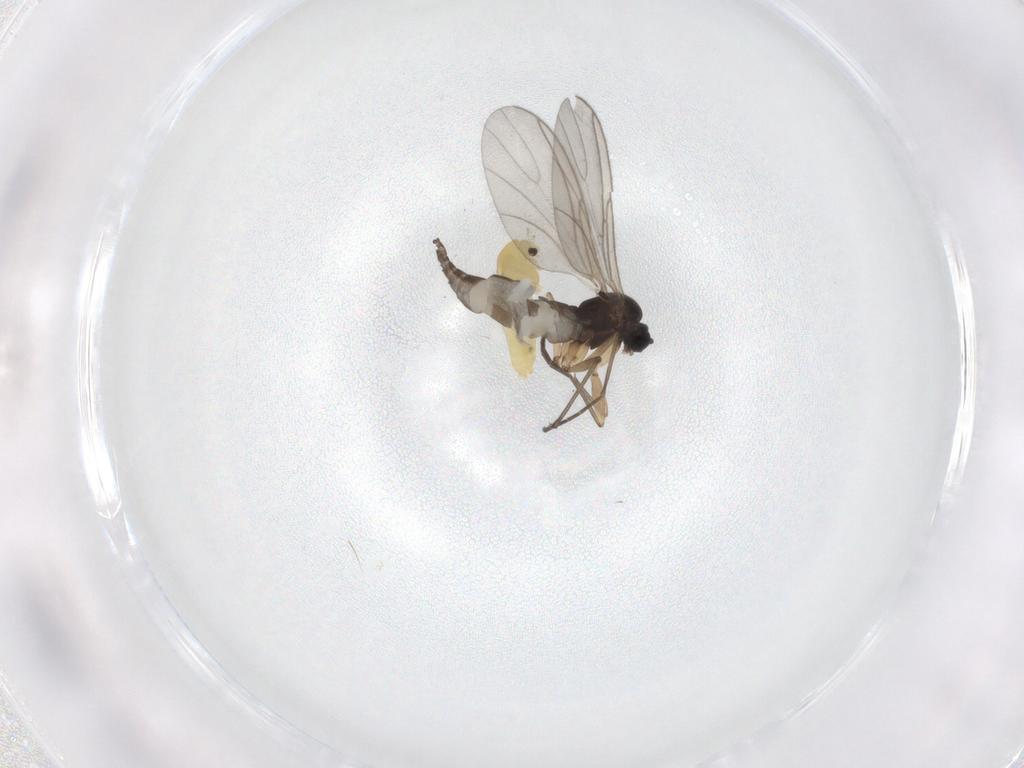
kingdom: Animalia
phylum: Arthropoda
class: Insecta
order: Diptera
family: Chironomidae
